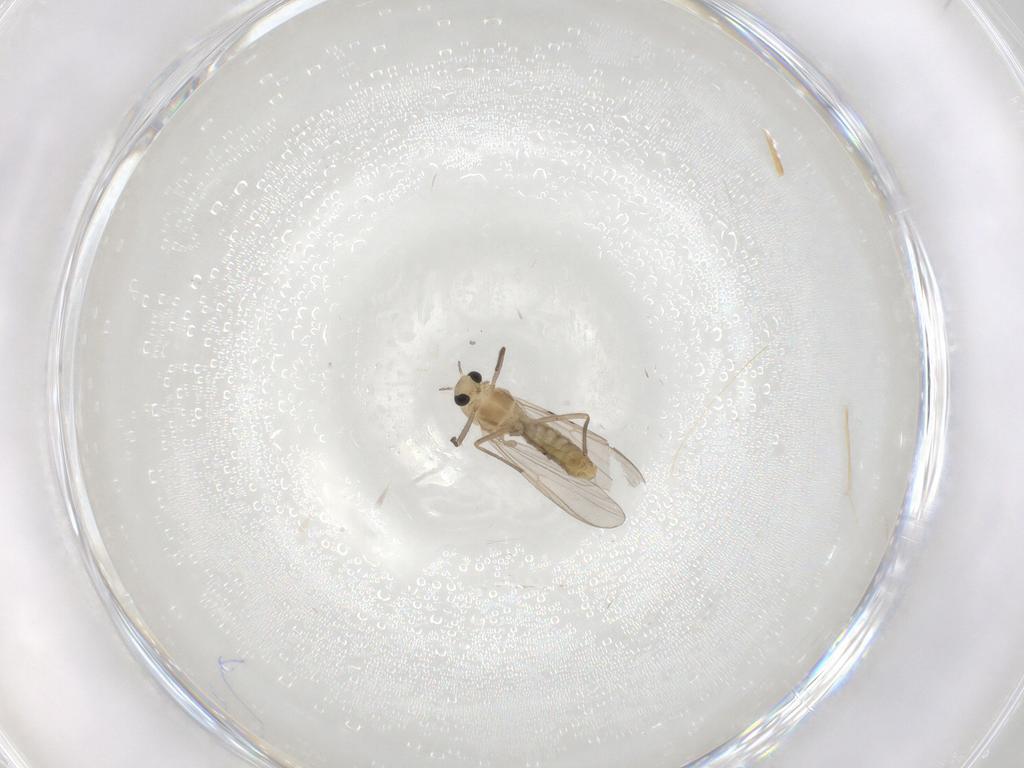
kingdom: Animalia
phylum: Arthropoda
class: Insecta
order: Diptera
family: Chironomidae
